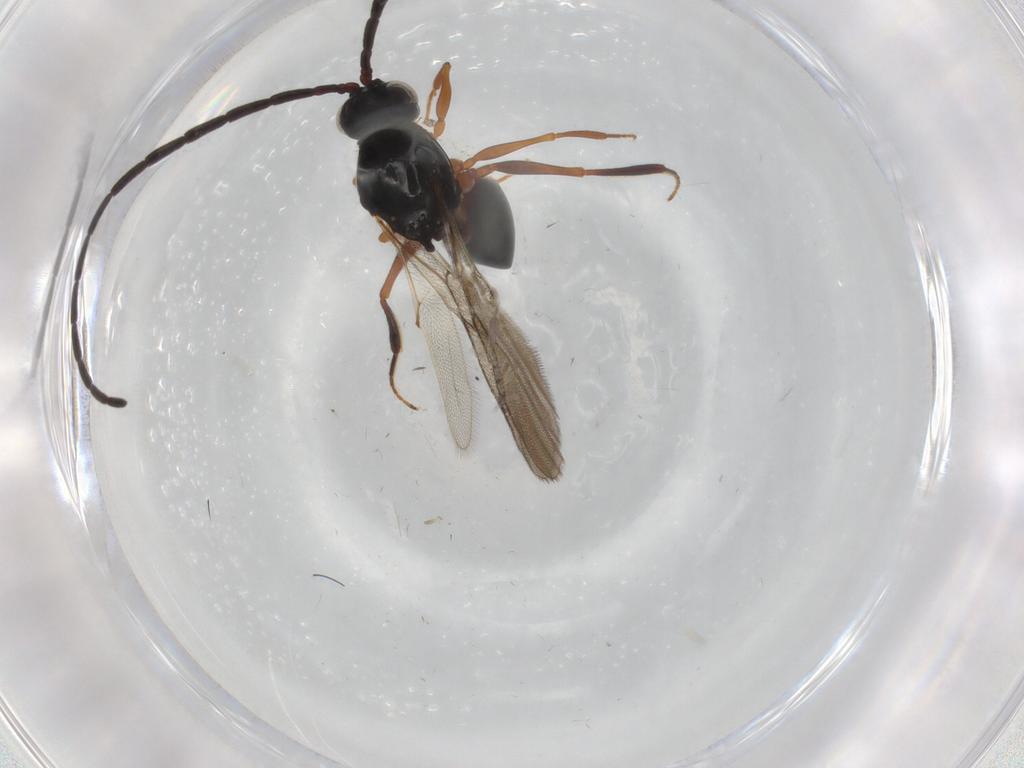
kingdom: Animalia
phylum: Arthropoda
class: Insecta
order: Hymenoptera
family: Figitidae
